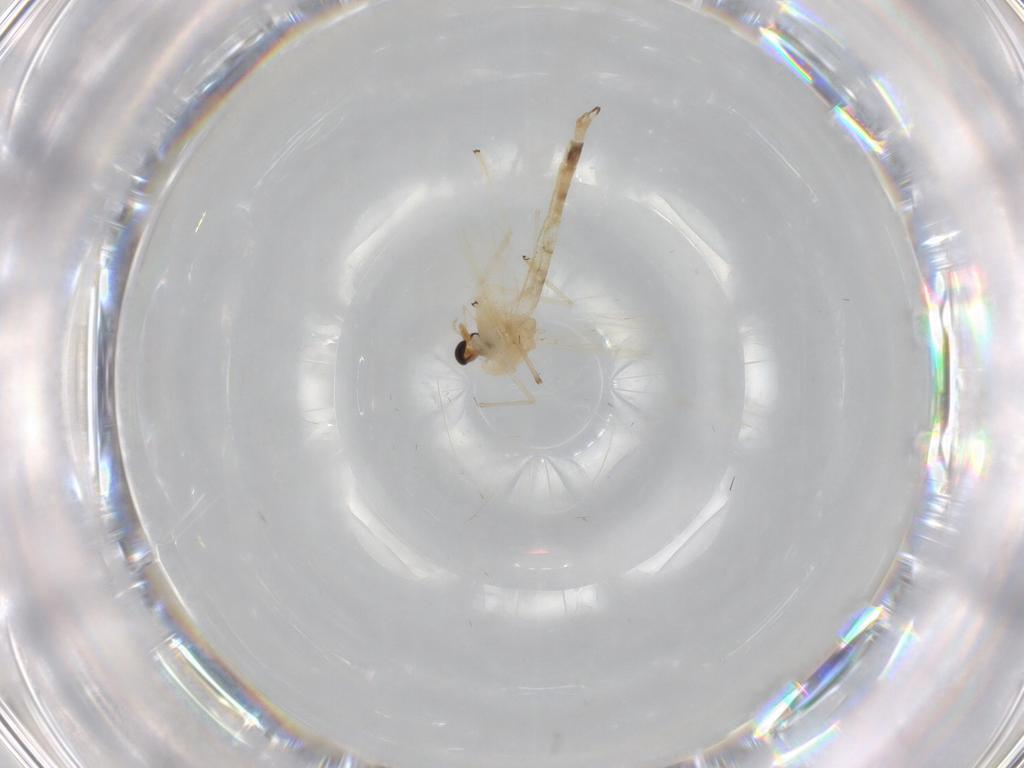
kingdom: Animalia
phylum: Arthropoda
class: Insecta
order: Diptera
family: Chironomidae
